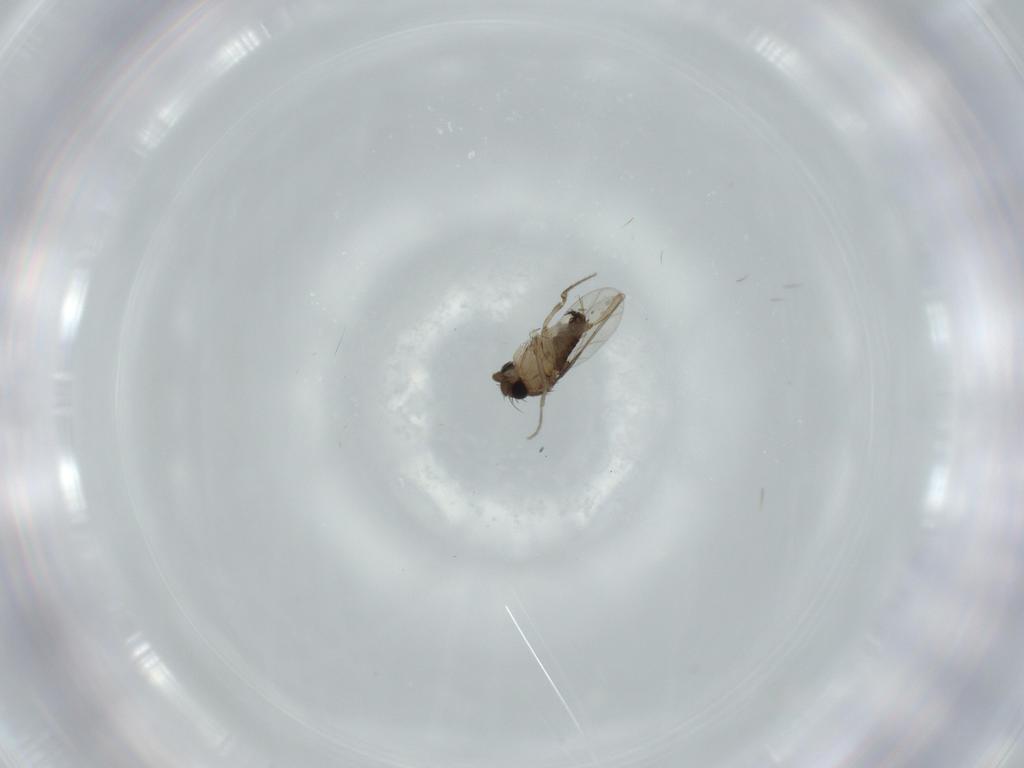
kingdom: Animalia
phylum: Arthropoda
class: Insecta
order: Diptera
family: Phoridae
